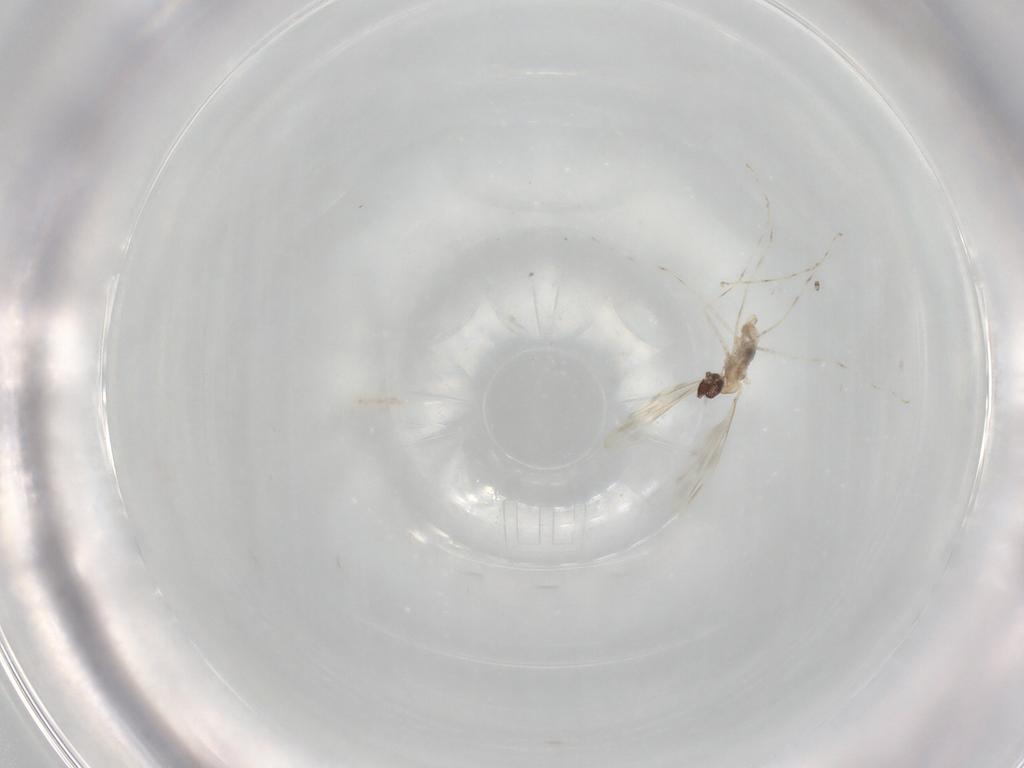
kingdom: Animalia
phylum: Arthropoda
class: Insecta
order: Diptera
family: Cecidomyiidae
